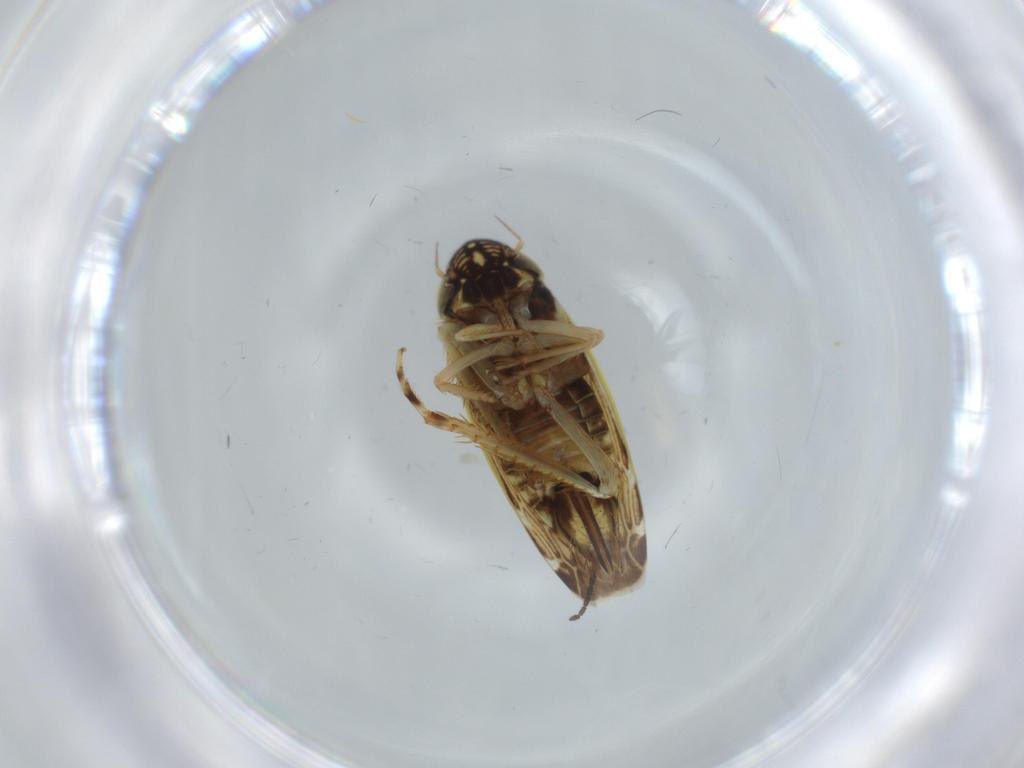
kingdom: Animalia
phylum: Arthropoda
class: Insecta
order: Hemiptera
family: Cicadellidae
